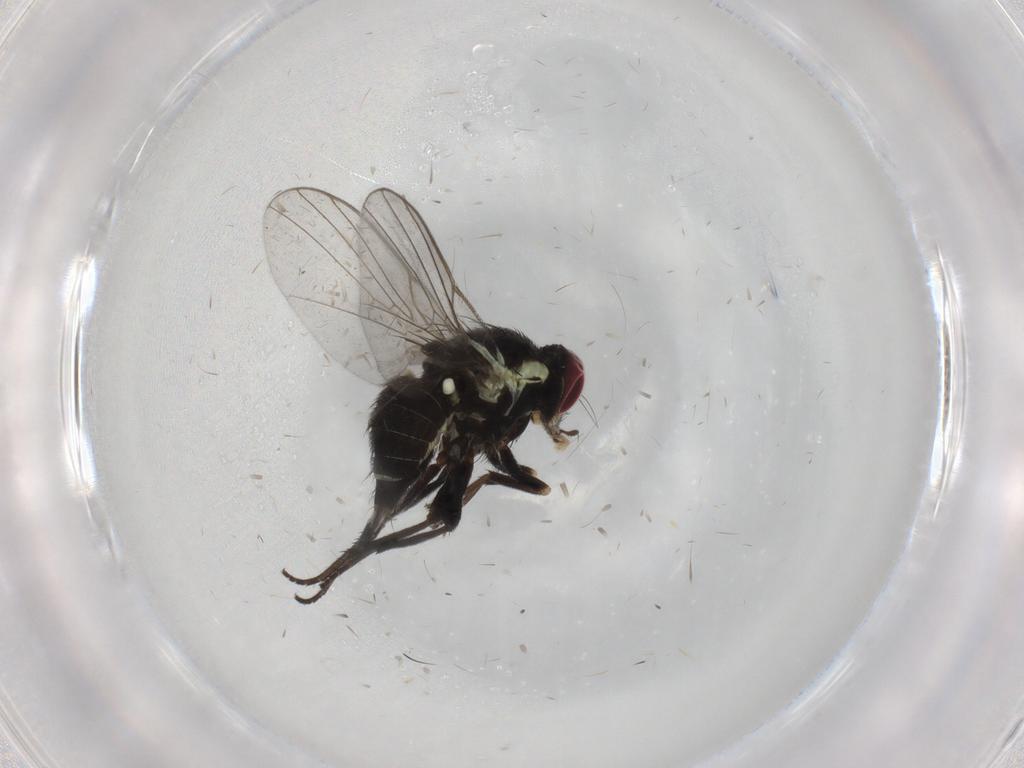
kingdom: Animalia
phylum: Arthropoda
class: Insecta
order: Diptera
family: Agromyzidae
